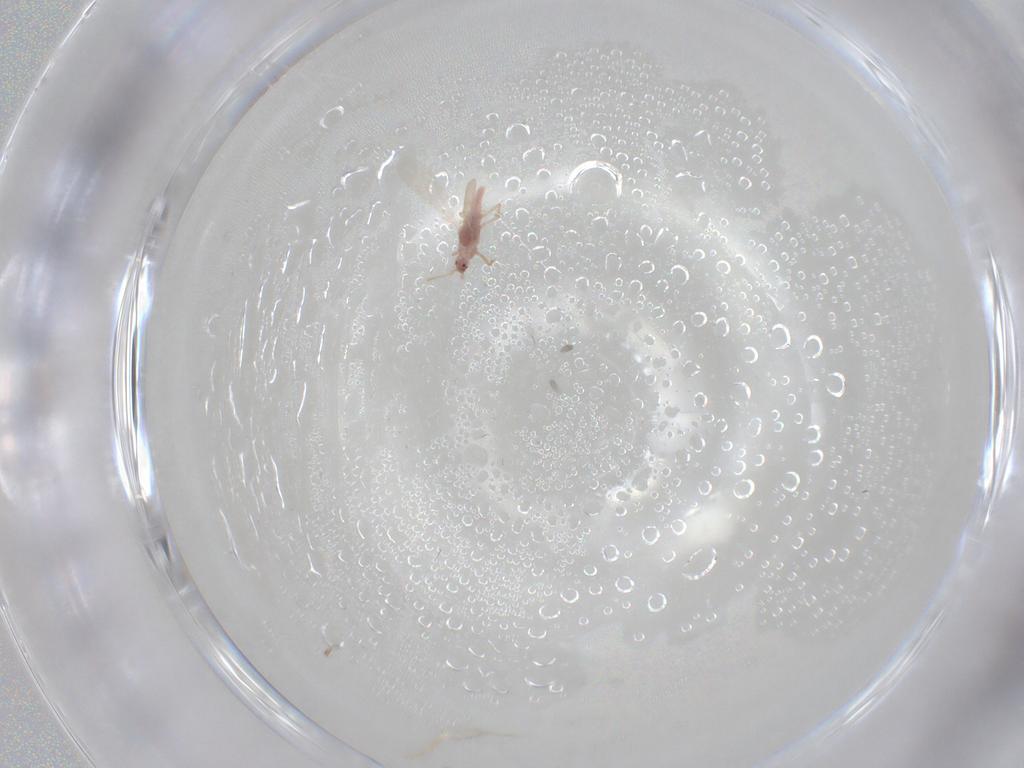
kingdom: Animalia
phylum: Arthropoda
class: Insecta
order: Hemiptera
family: Pseudococcidae
